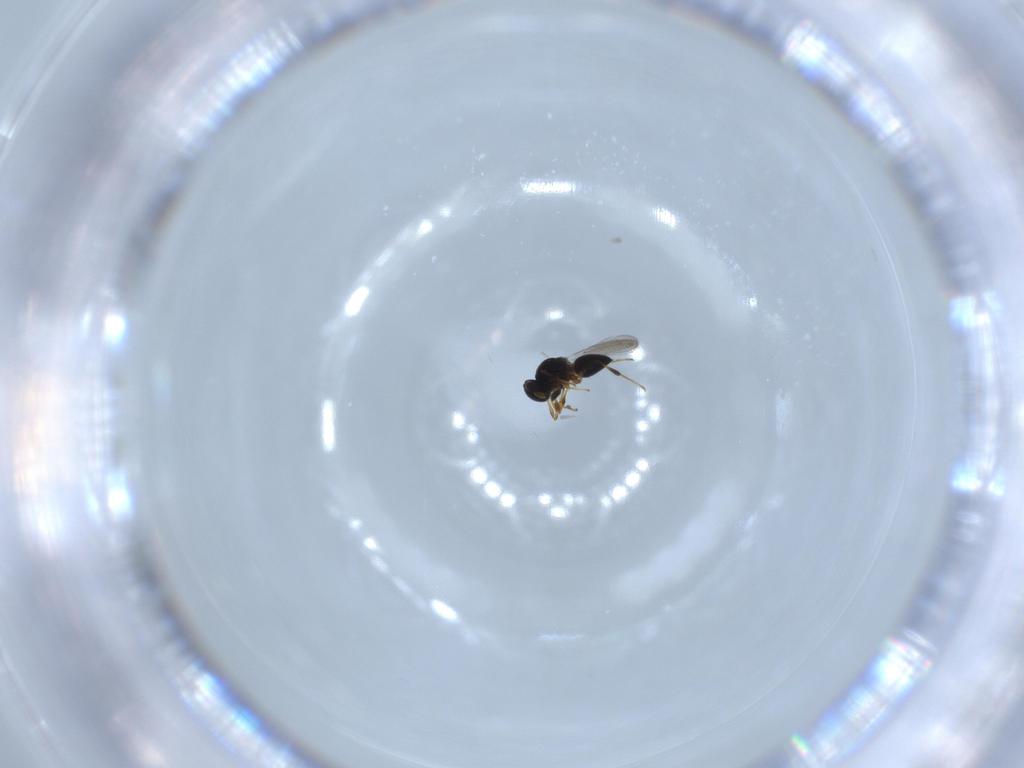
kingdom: Animalia
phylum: Arthropoda
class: Insecta
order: Hymenoptera
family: Platygastridae
